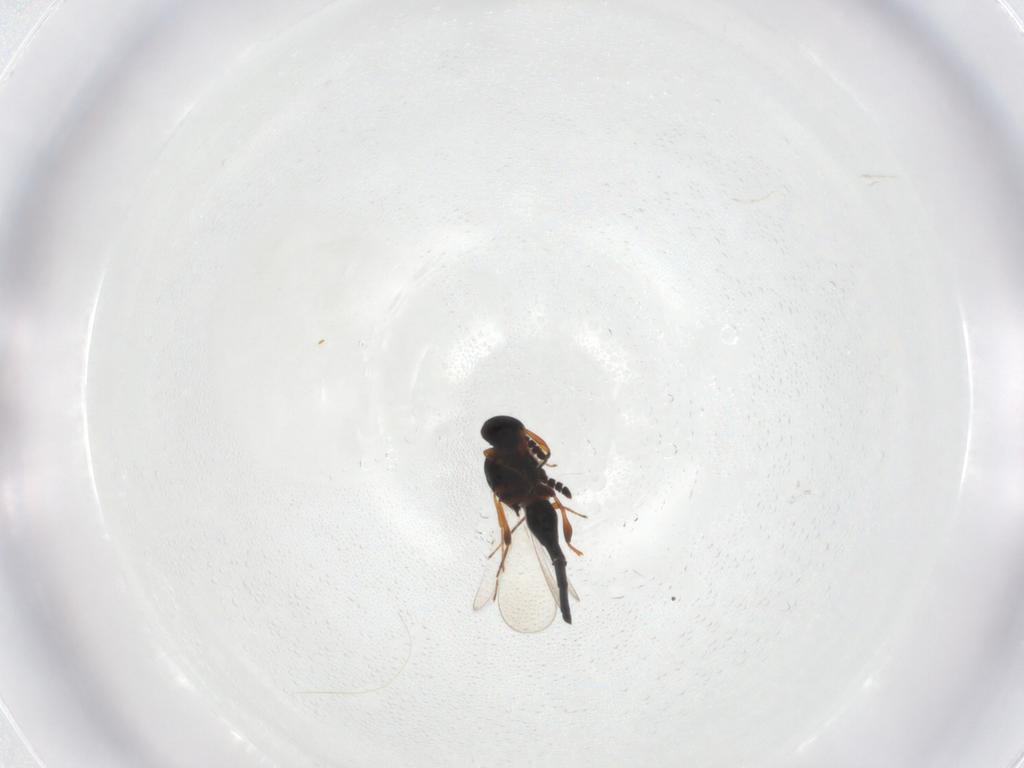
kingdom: Animalia
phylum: Arthropoda
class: Insecta
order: Hymenoptera
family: Platygastridae
